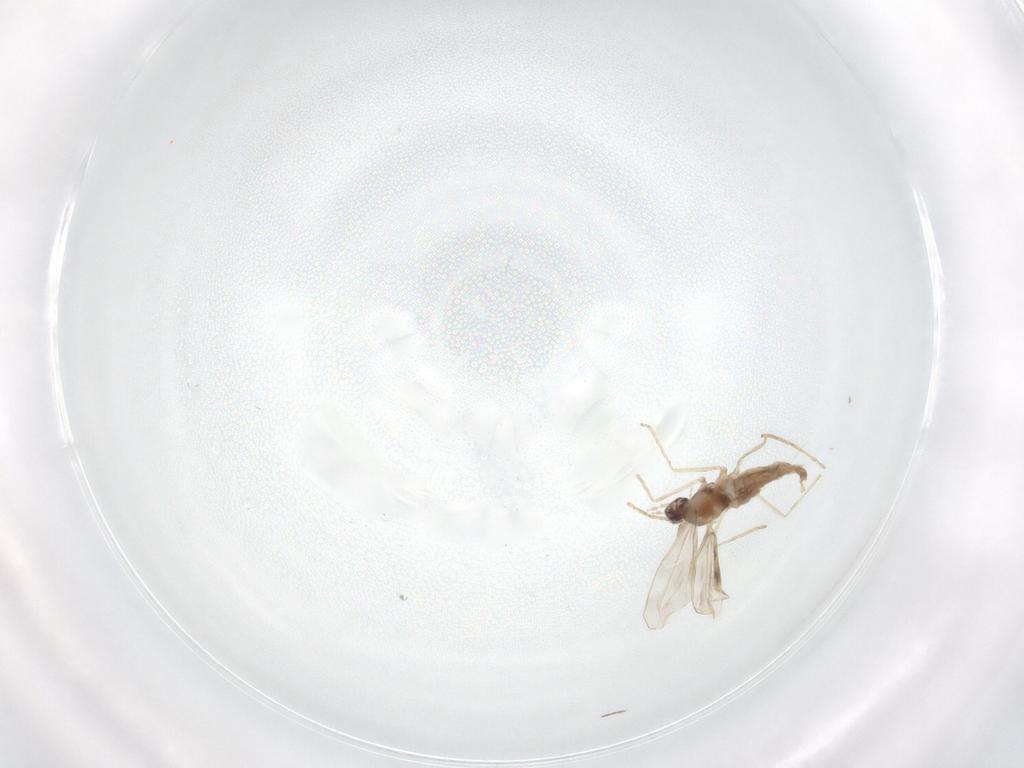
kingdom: Animalia
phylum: Arthropoda
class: Insecta
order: Diptera
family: Cecidomyiidae
